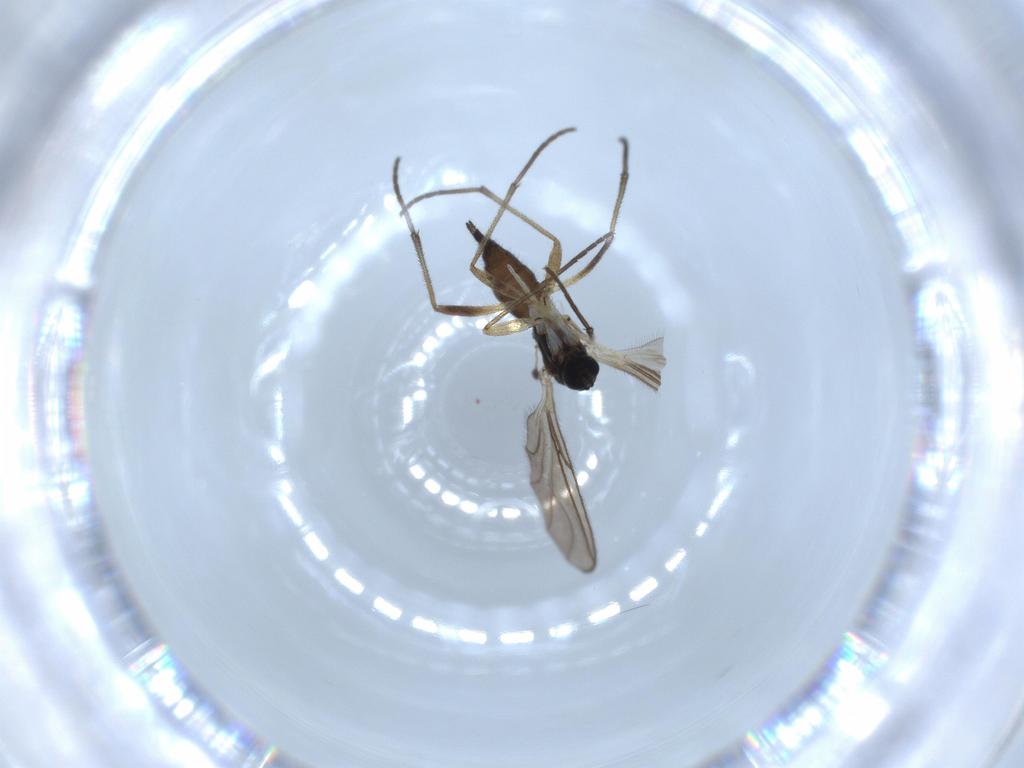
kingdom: Animalia
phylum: Arthropoda
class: Insecta
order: Diptera
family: Sciaridae
